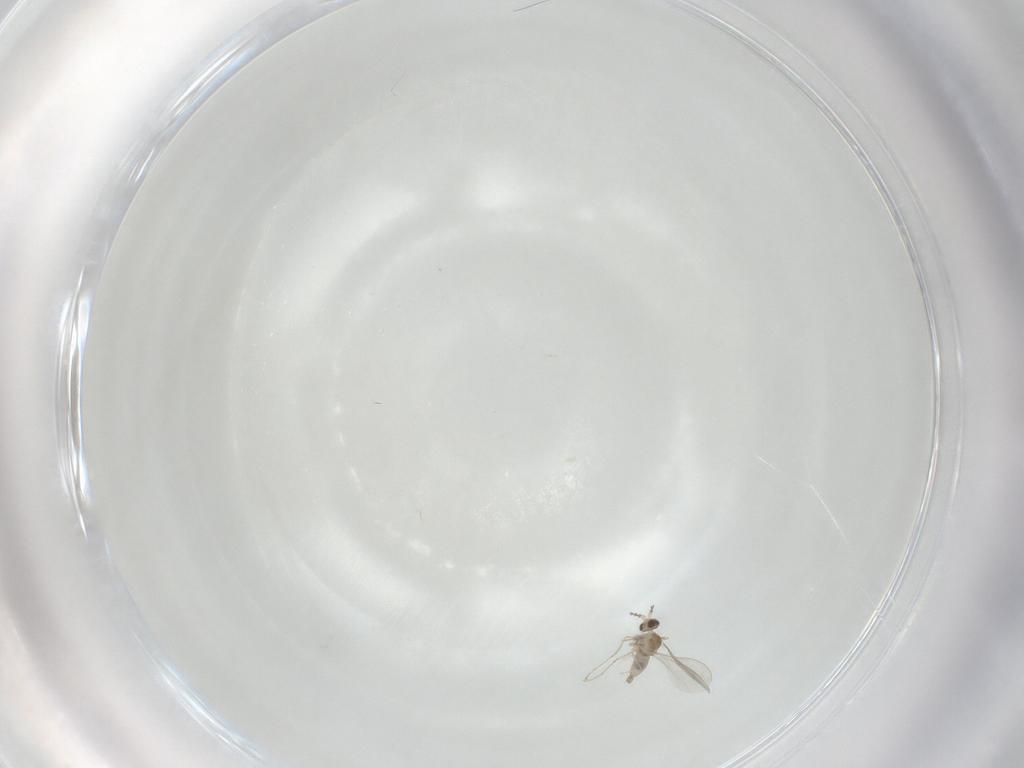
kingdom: Animalia
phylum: Arthropoda
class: Insecta
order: Diptera
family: Cecidomyiidae
